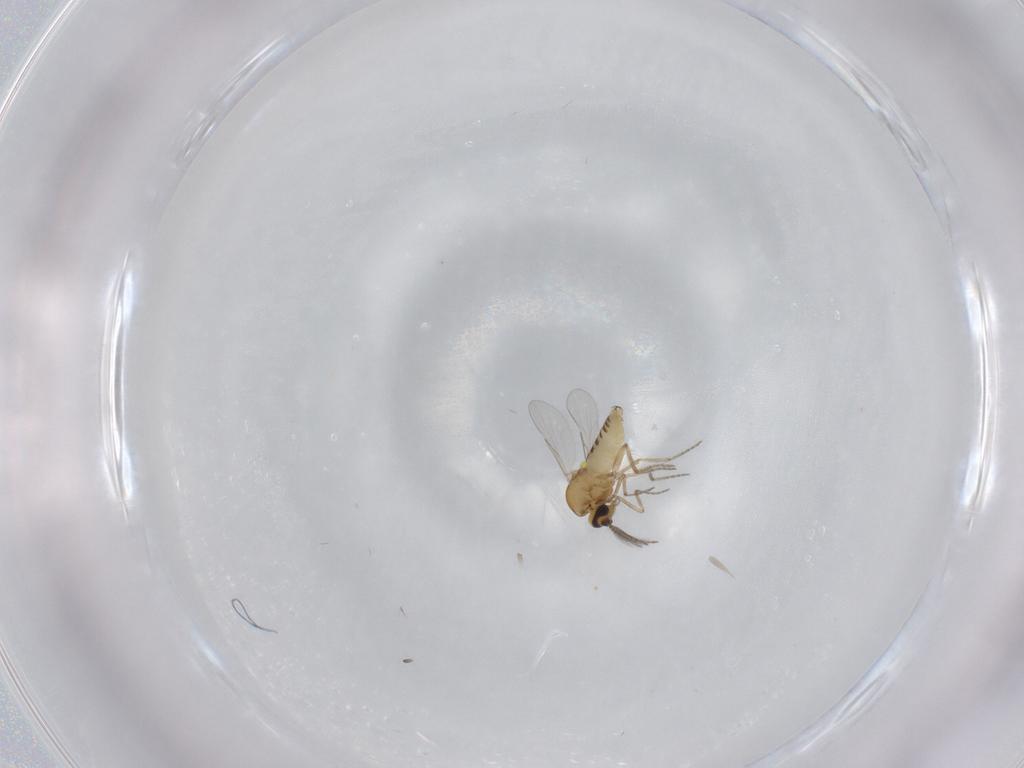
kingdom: Animalia
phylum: Arthropoda
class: Insecta
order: Diptera
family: Ceratopogonidae
